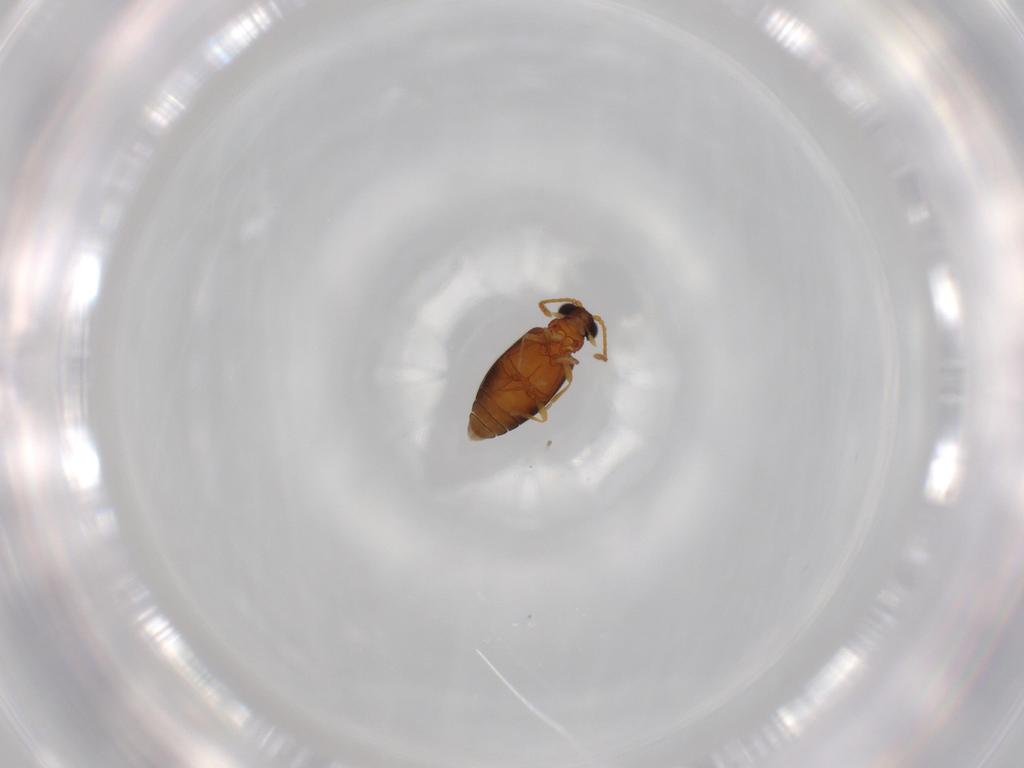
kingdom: Animalia
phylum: Arthropoda
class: Insecta
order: Coleoptera
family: Aderidae
